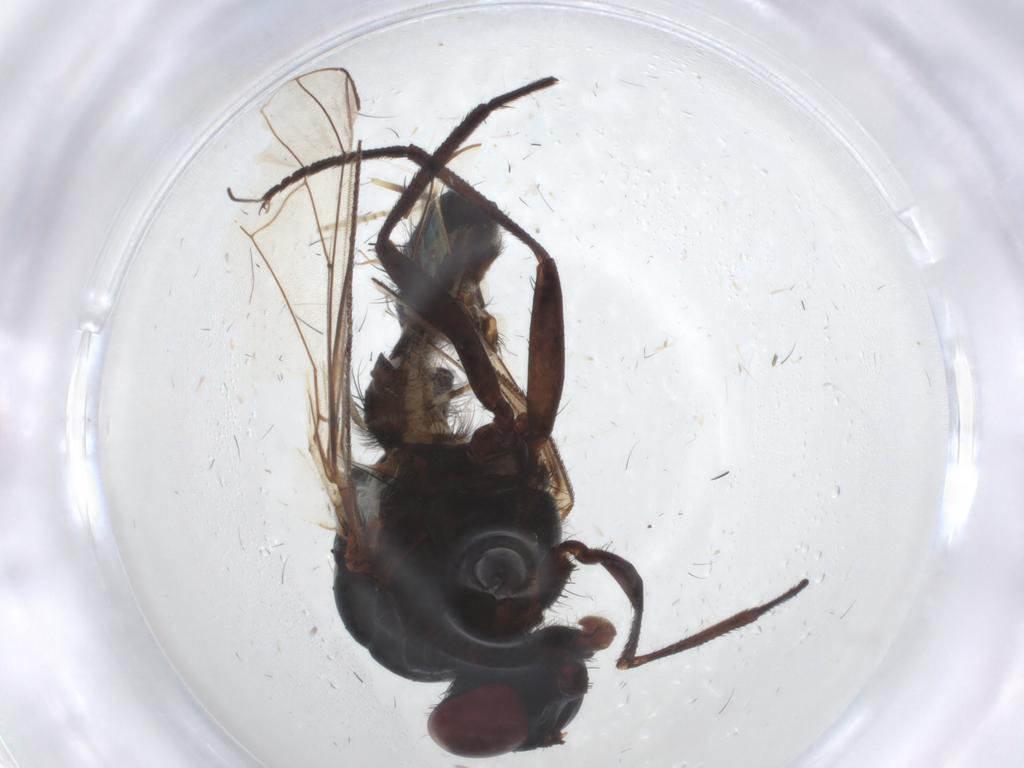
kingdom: Animalia
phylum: Arthropoda
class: Insecta
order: Diptera
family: Anthomyiidae
